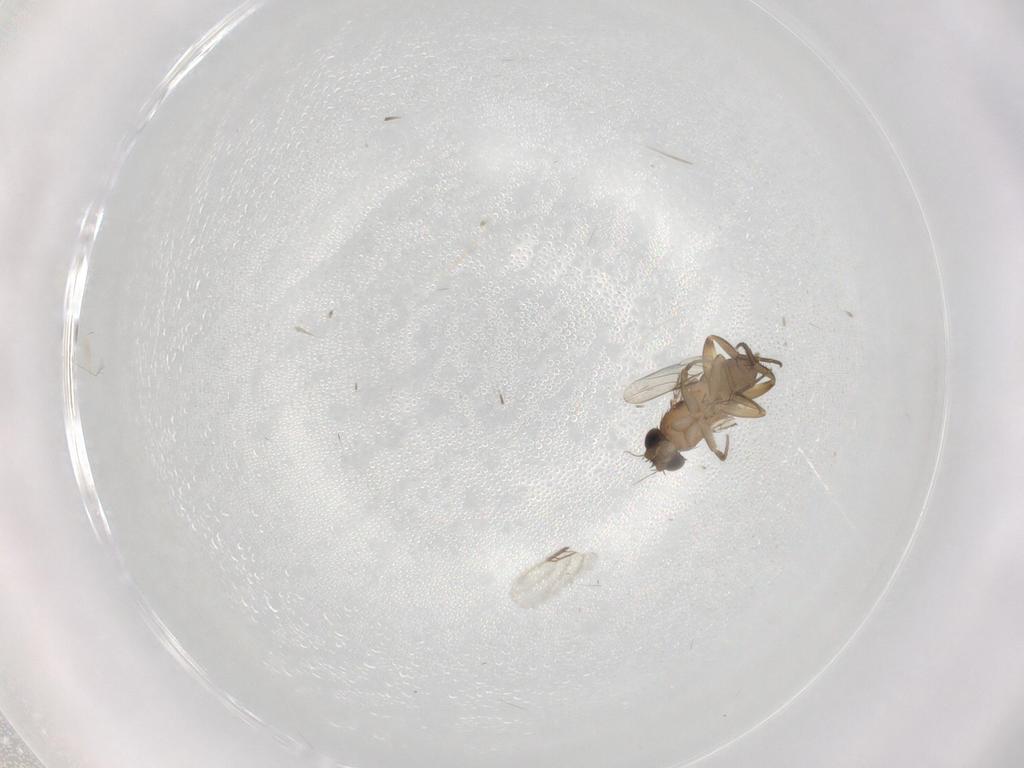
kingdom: Animalia
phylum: Arthropoda
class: Insecta
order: Diptera
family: Phoridae
